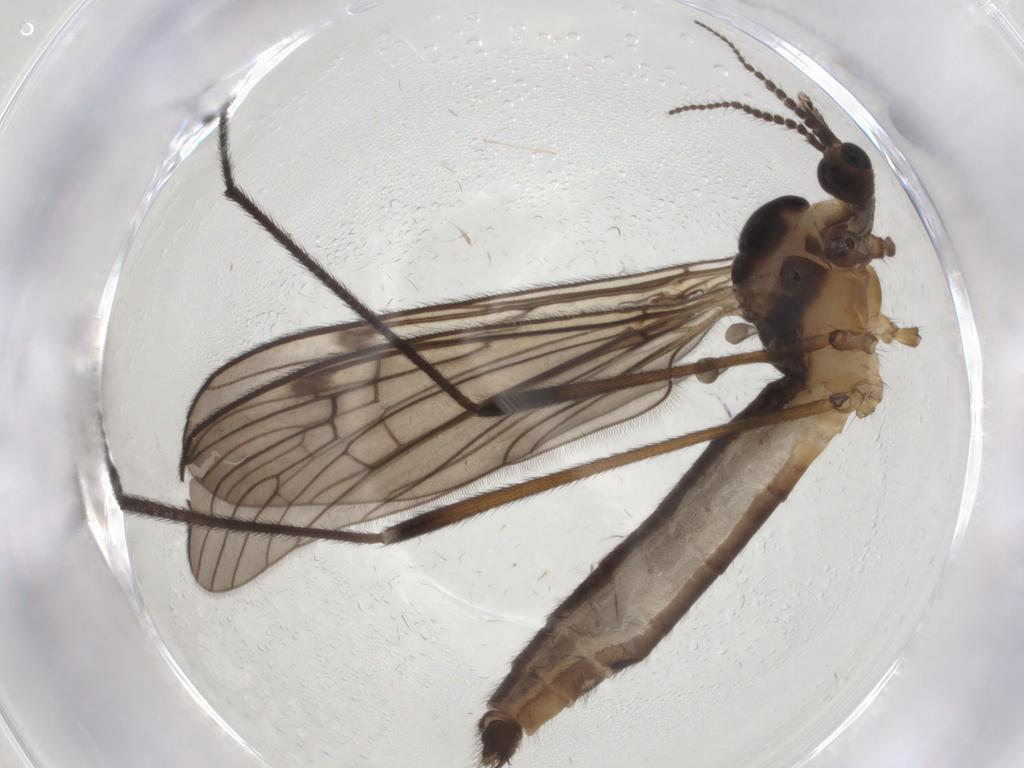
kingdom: Animalia
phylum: Arthropoda
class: Insecta
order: Diptera
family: Limoniidae
